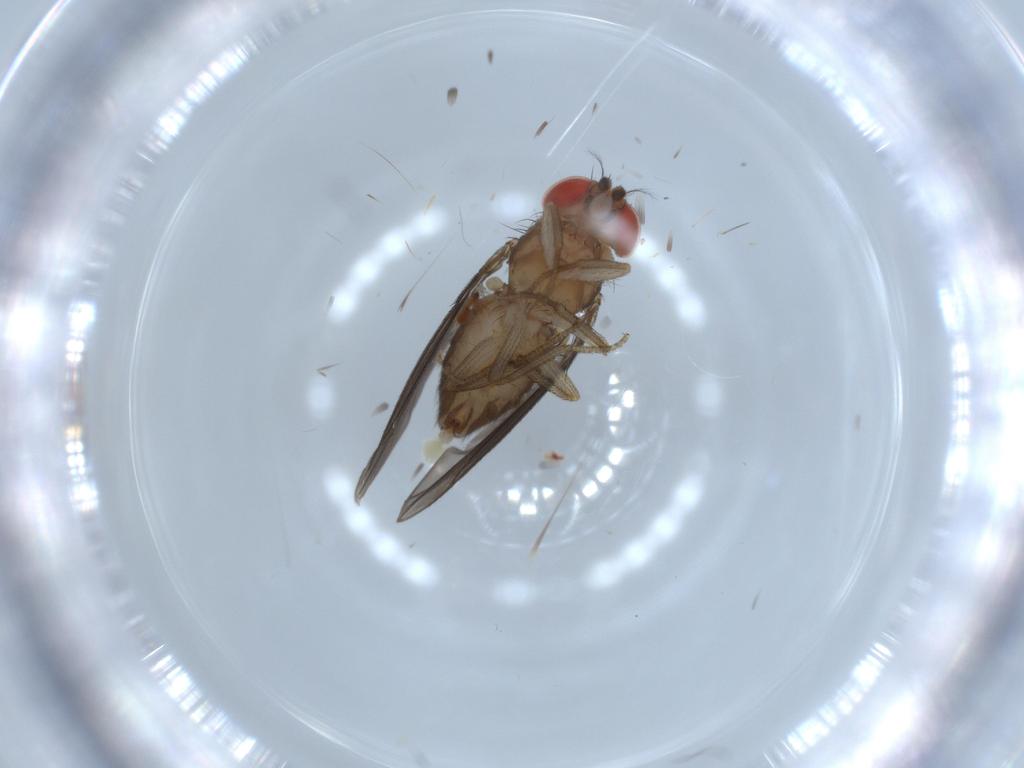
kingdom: Animalia
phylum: Arthropoda
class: Insecta
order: Diptera
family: Drosophilidae
